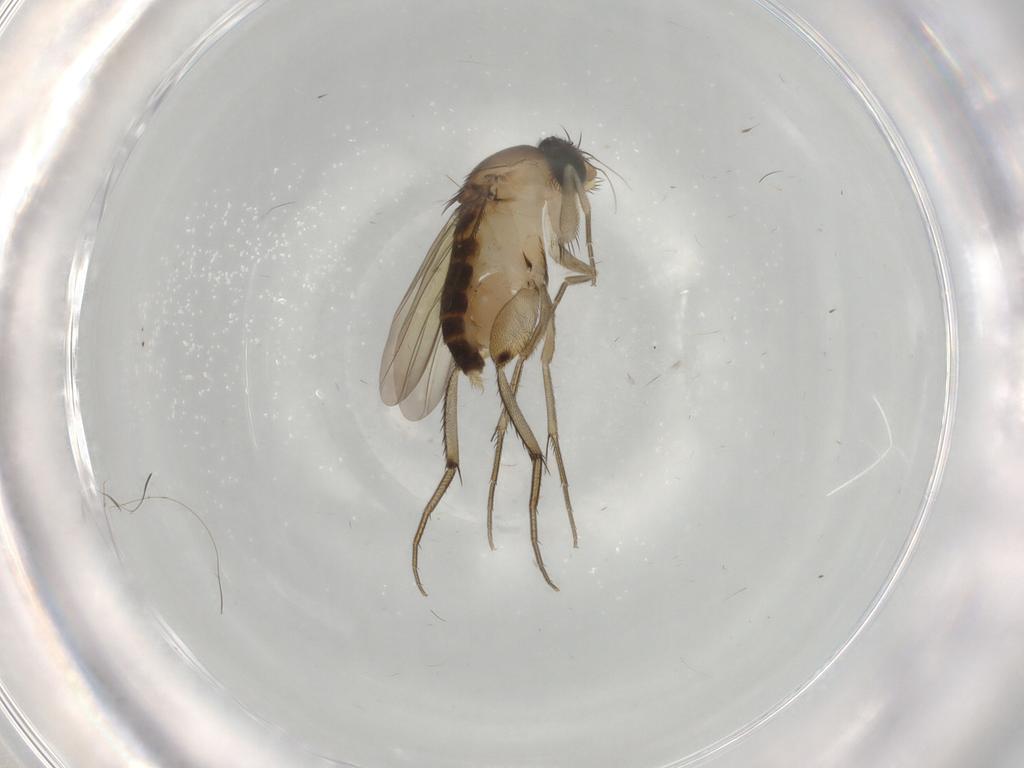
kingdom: Animalia
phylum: Arthropoda
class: Insecta
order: Diptera
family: Phoridae
